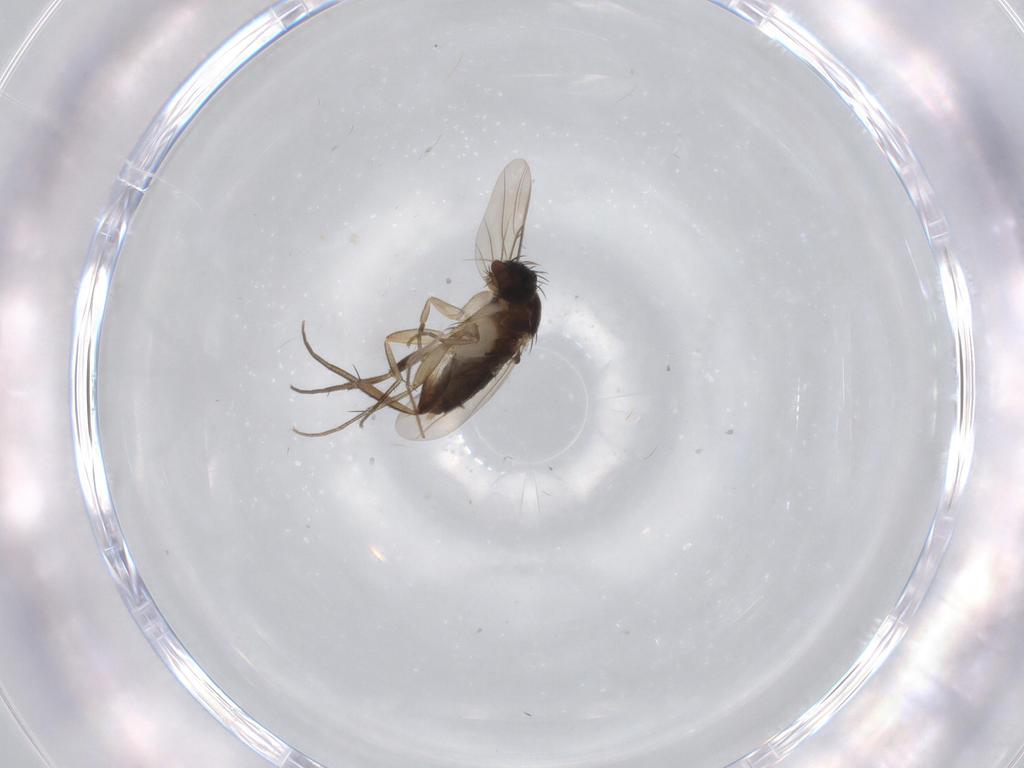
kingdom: Animalia
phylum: Arthropoda
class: Insecta
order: Diptera
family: Phoridae
